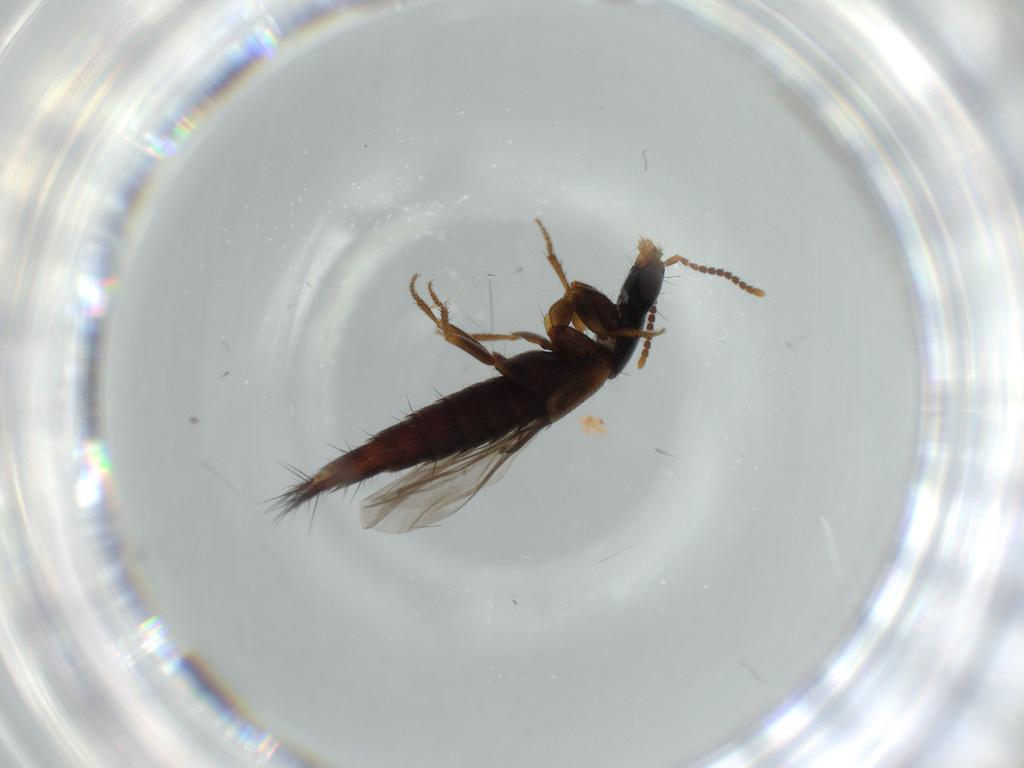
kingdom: Animalia
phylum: Arthropoda
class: Insecta
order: Coleoptera
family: Staphylinidae
